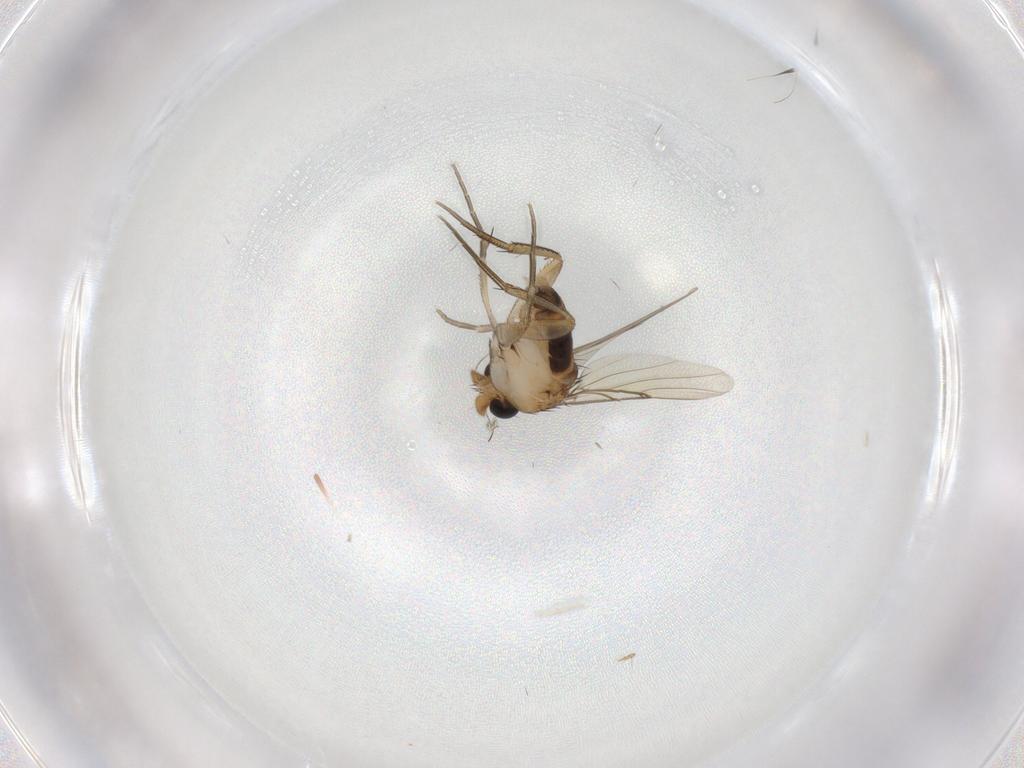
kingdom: Animalia
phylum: Arthropoda
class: Insecta
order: Diptera
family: Phoridae
